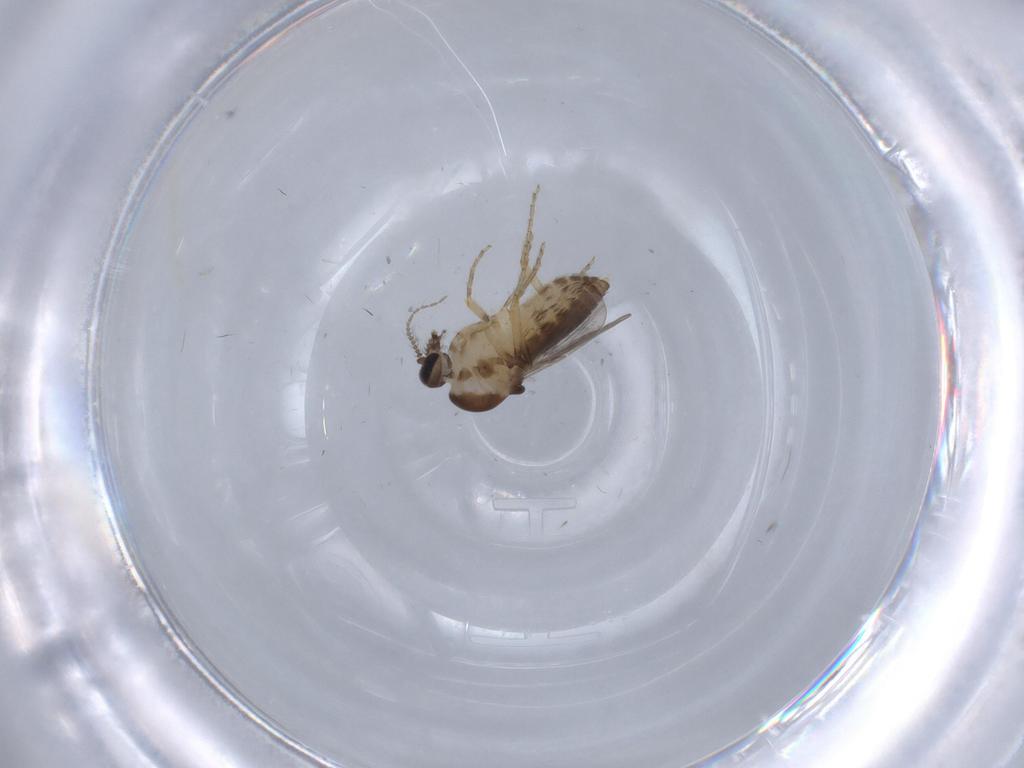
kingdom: Animalia
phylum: Arthropoda
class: Insecta
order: Diptera
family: Ceratopogonidae
